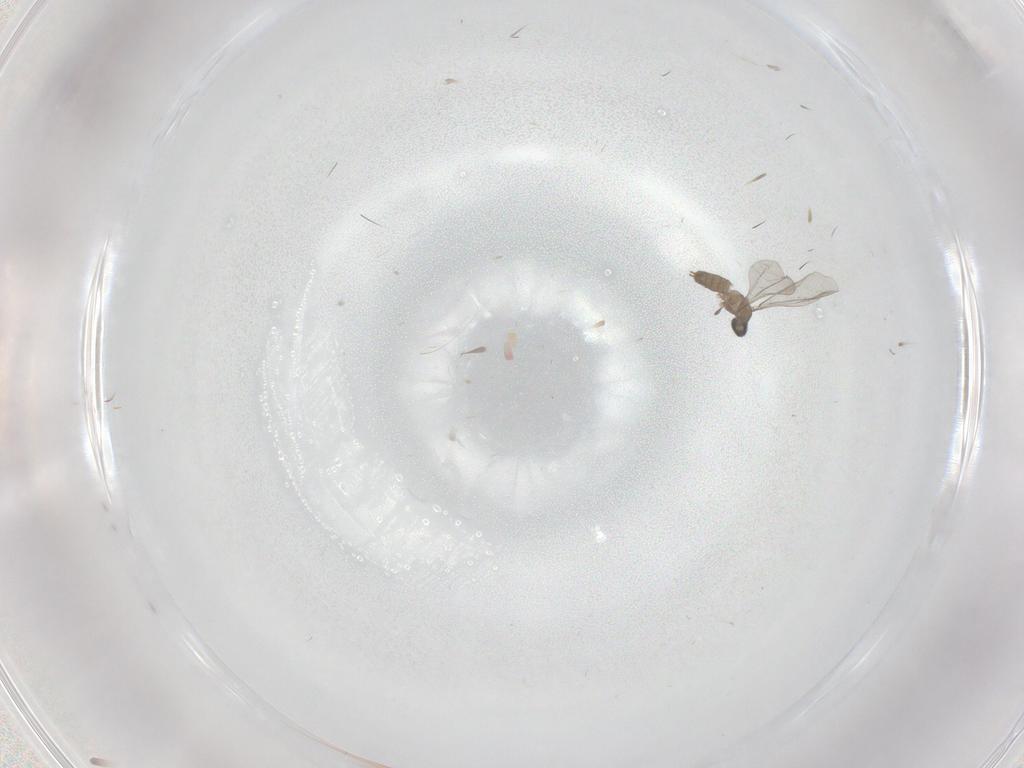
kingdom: Animalia
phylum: Arthropoda
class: Insecta
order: Diptera
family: Cecidomyiidae
